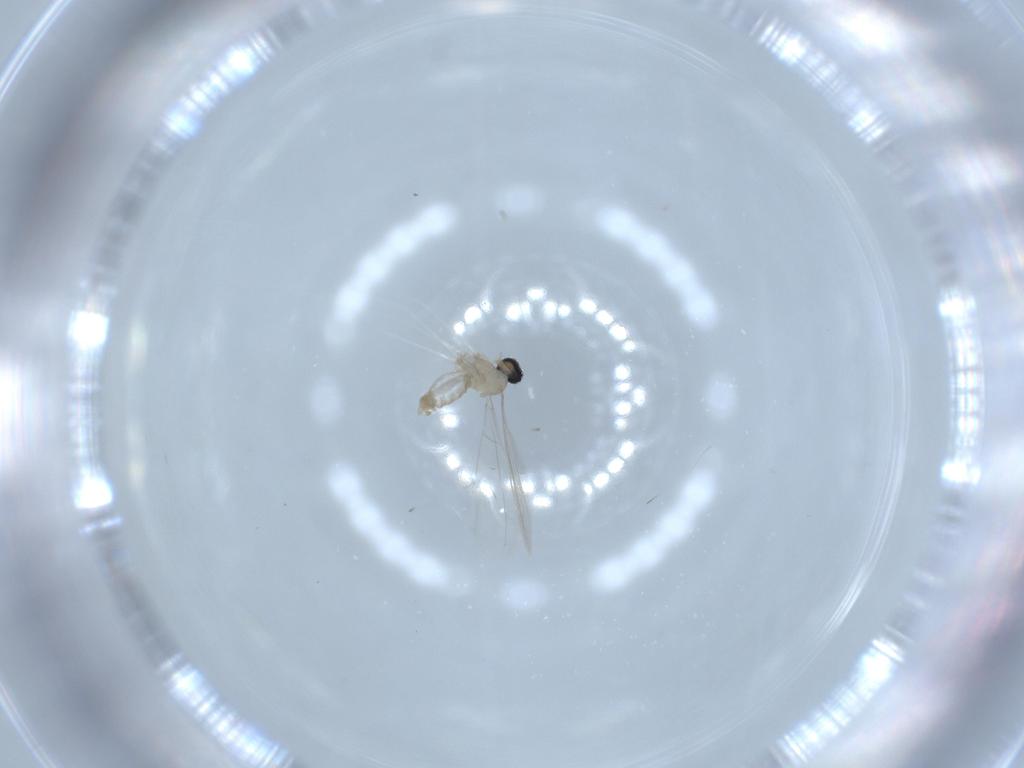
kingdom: Animalia
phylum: Arthropoda
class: Insecta
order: Diptera
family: Cecidomyiidae
